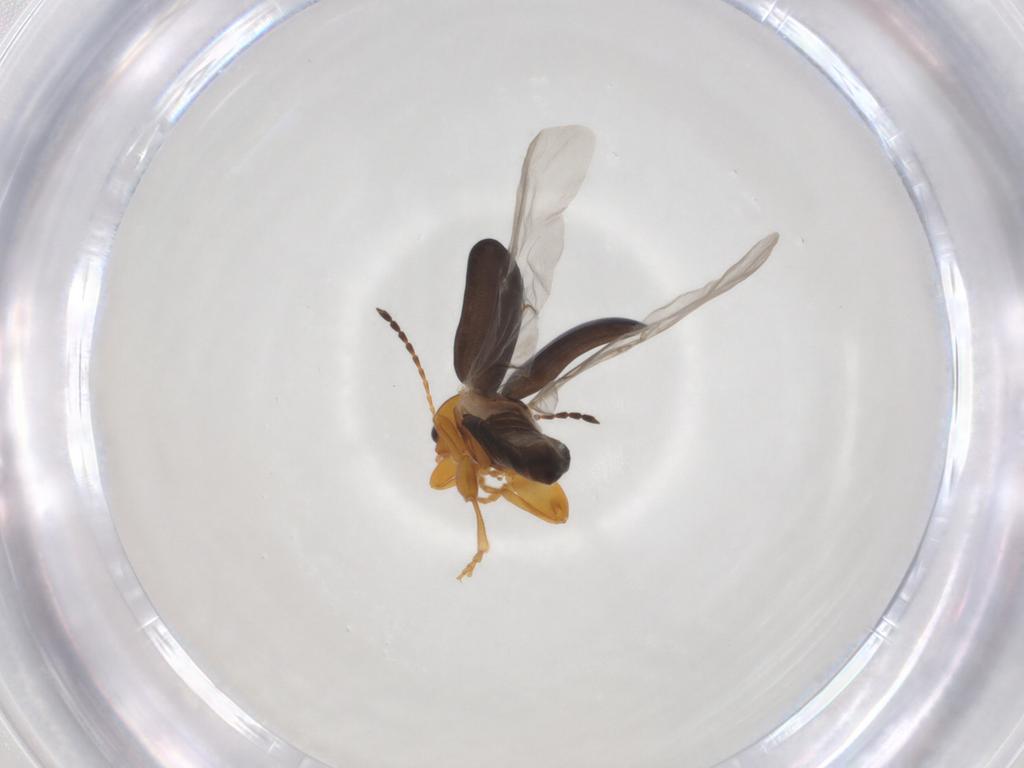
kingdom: Animalia
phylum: Arthropoda
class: Insecta
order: Coleoptera
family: Chrysomelidae
